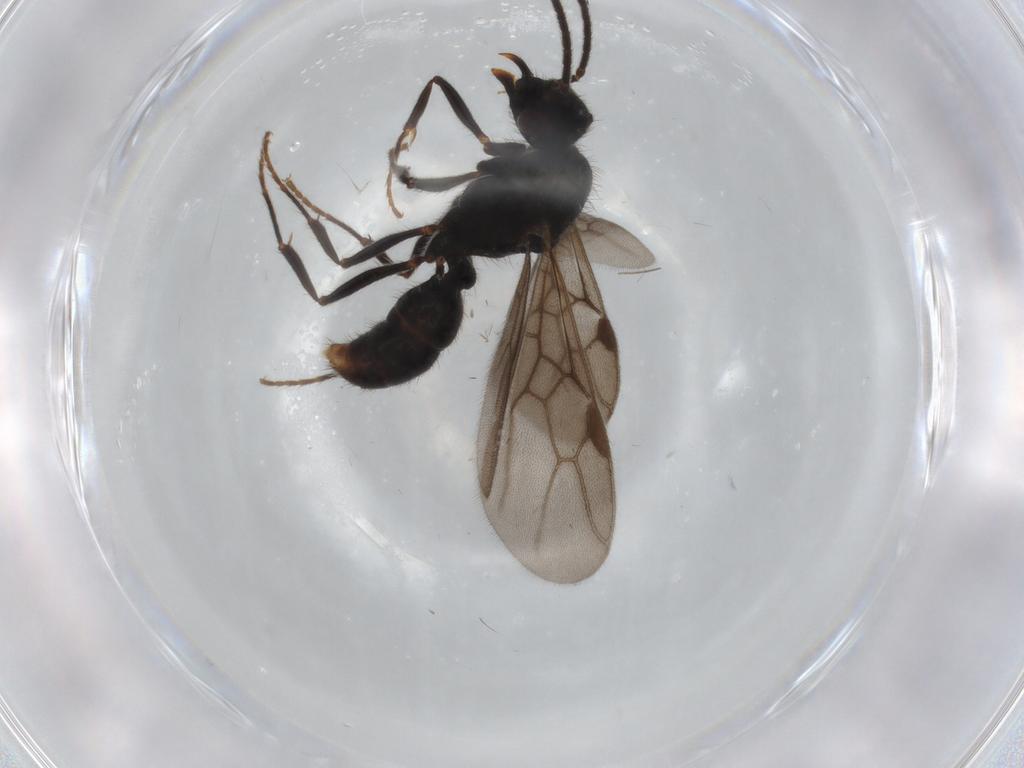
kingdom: Animalia
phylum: Arthropoda
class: Insecta
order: Hymenoptera
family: Formicidae
